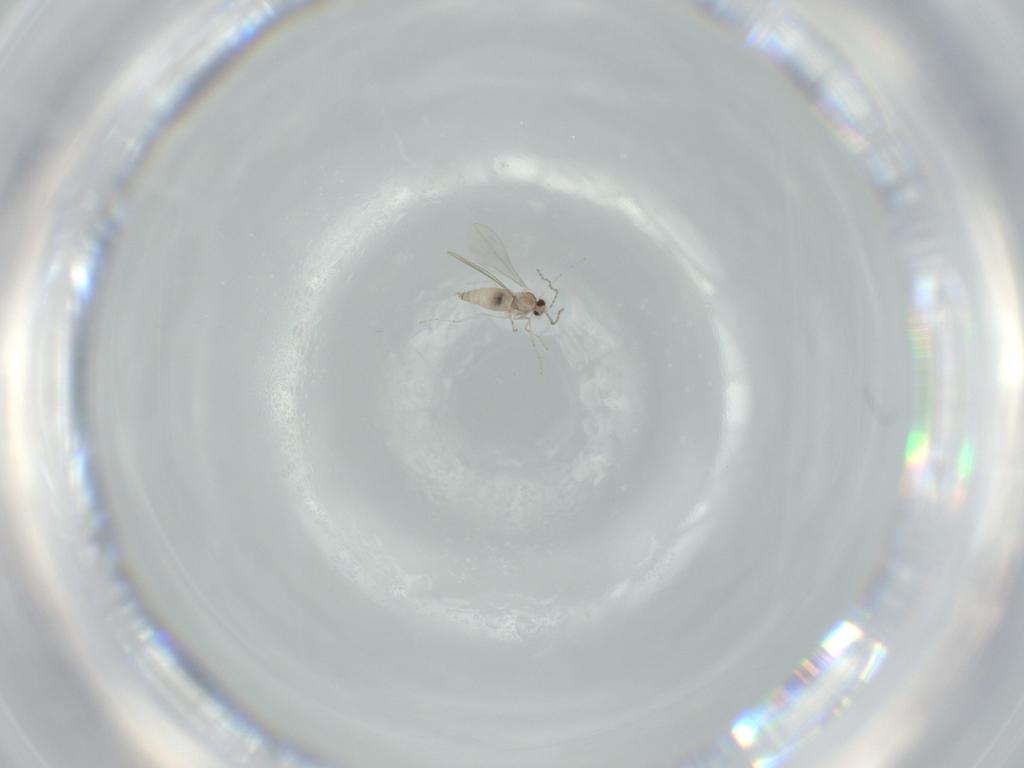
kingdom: Animalia
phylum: Arthropoda
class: Insecta
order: Diptera
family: Cecidomyiidae
